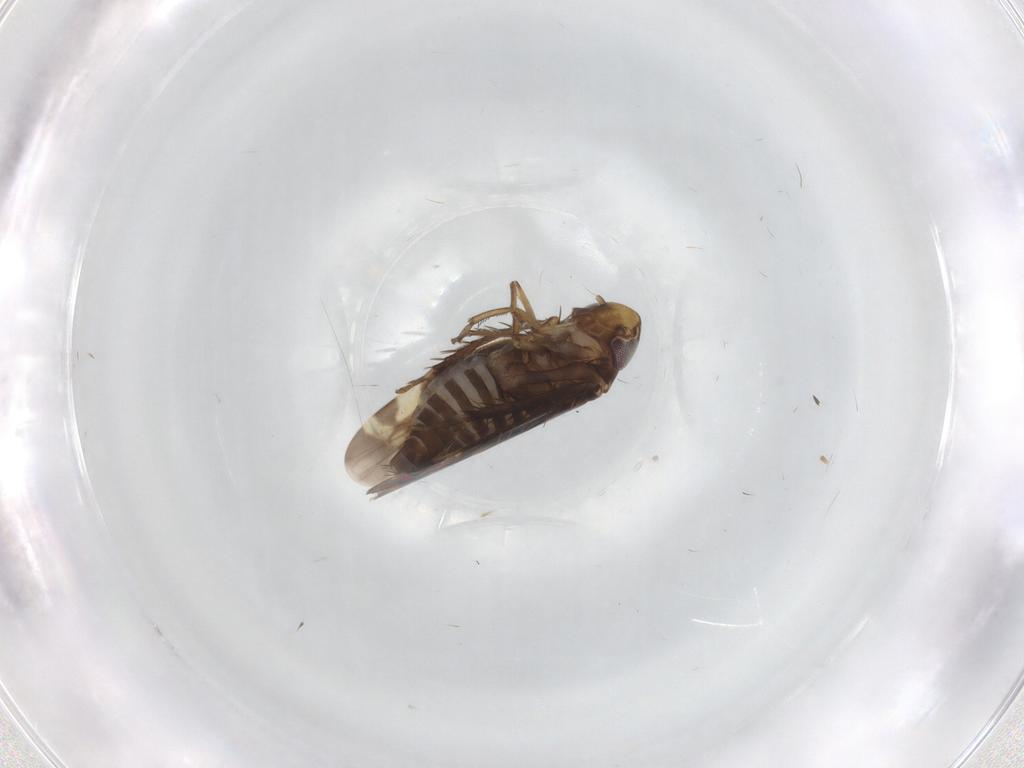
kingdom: Animalia
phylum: Arthropoda
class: Insecta
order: Hemiptera
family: Cicadellidae
